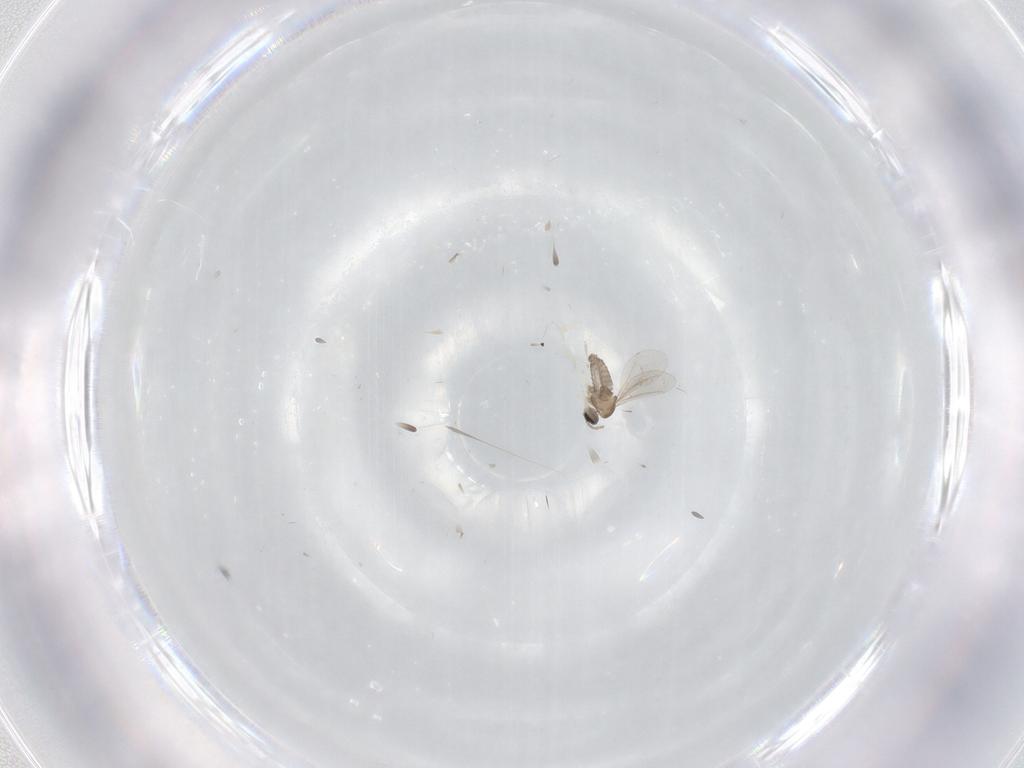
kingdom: Animalia
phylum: Arthropoda
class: Insecta
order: Diptera
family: Cecidomyiidae
